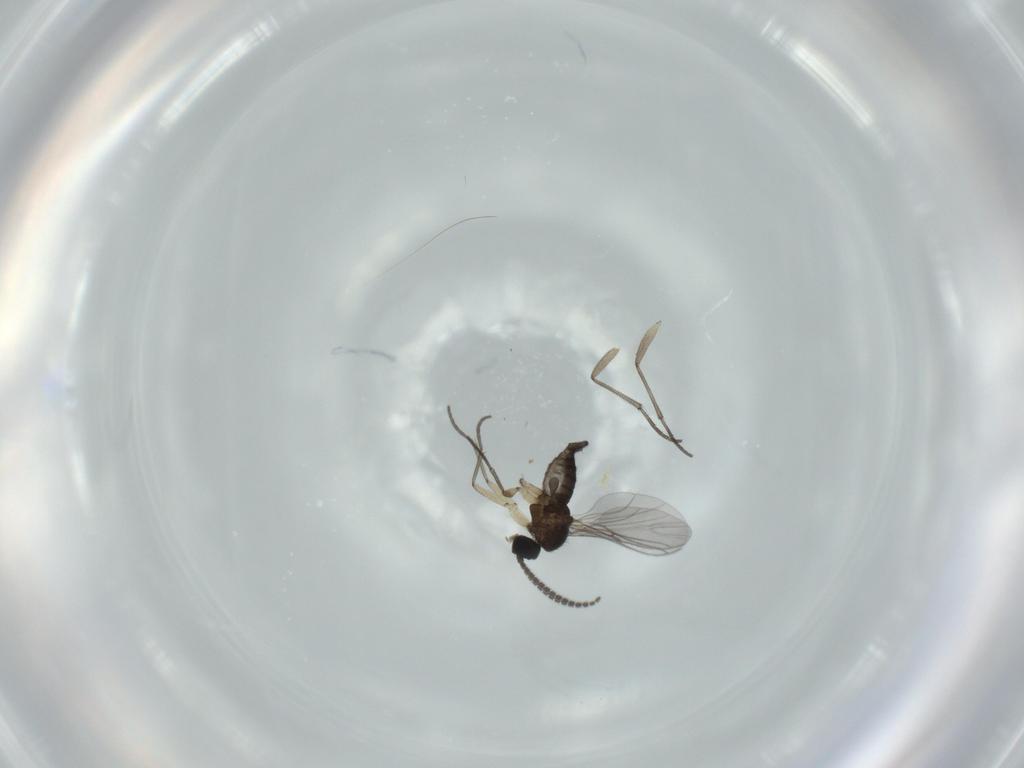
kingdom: Animalia
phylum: Arthropoda
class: Insecta
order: Diptera
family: Sciaridae
